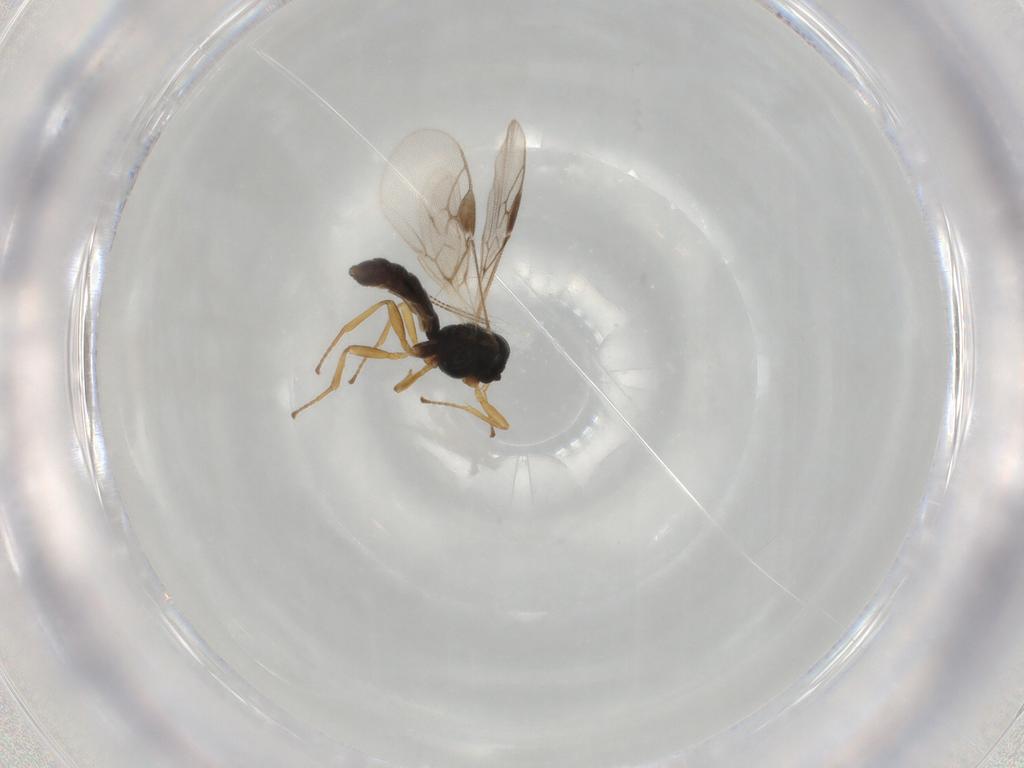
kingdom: Animalia
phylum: Arthropoda
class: Insecta
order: Hymenoptera
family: Braconidae
